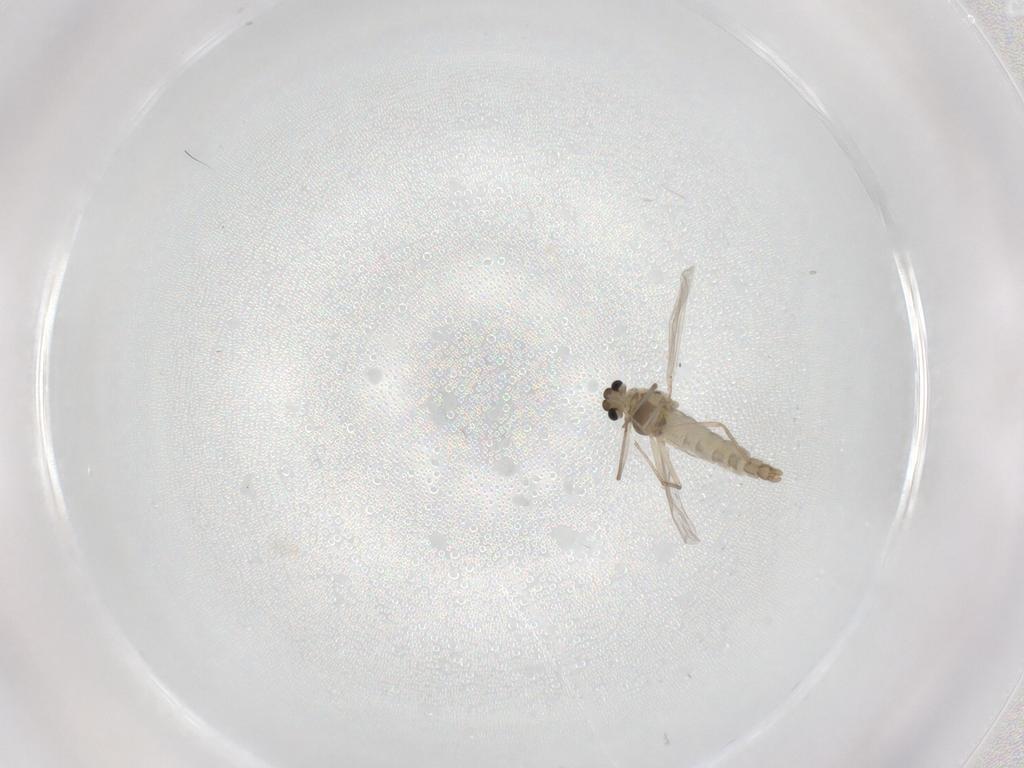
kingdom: Animalia
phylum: Arthropoda
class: Insecta
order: Diptera
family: Chironomidae
